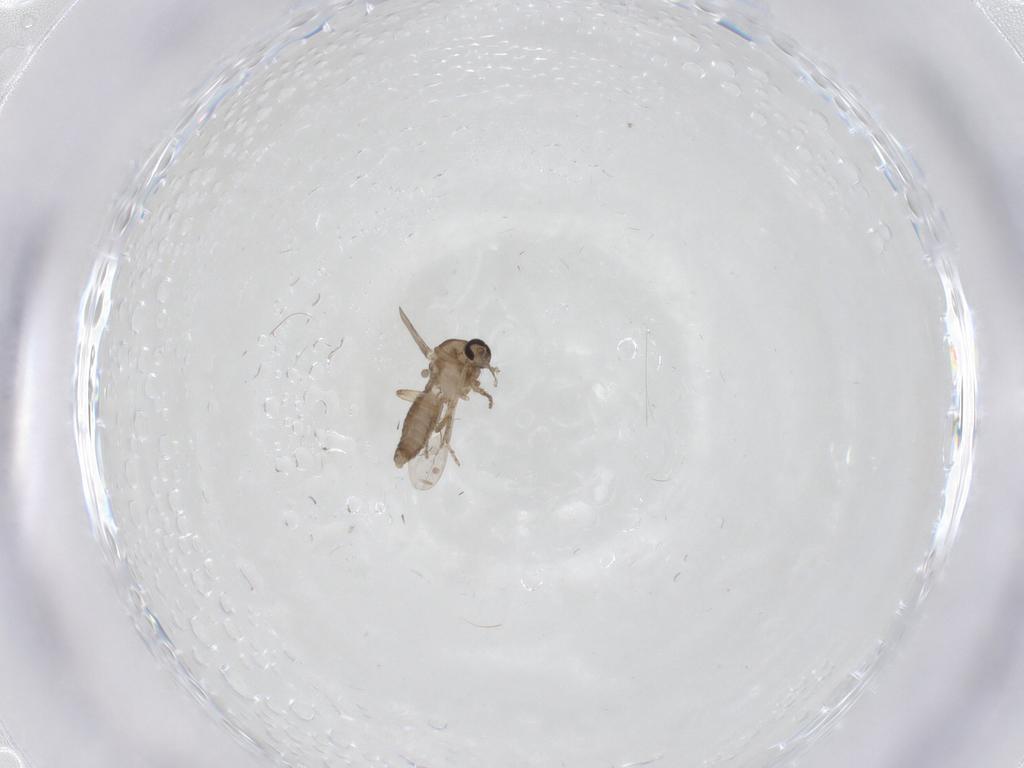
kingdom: Animalia
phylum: Arthropoda
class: Insecta
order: Diptera
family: Ceratopogonidae
